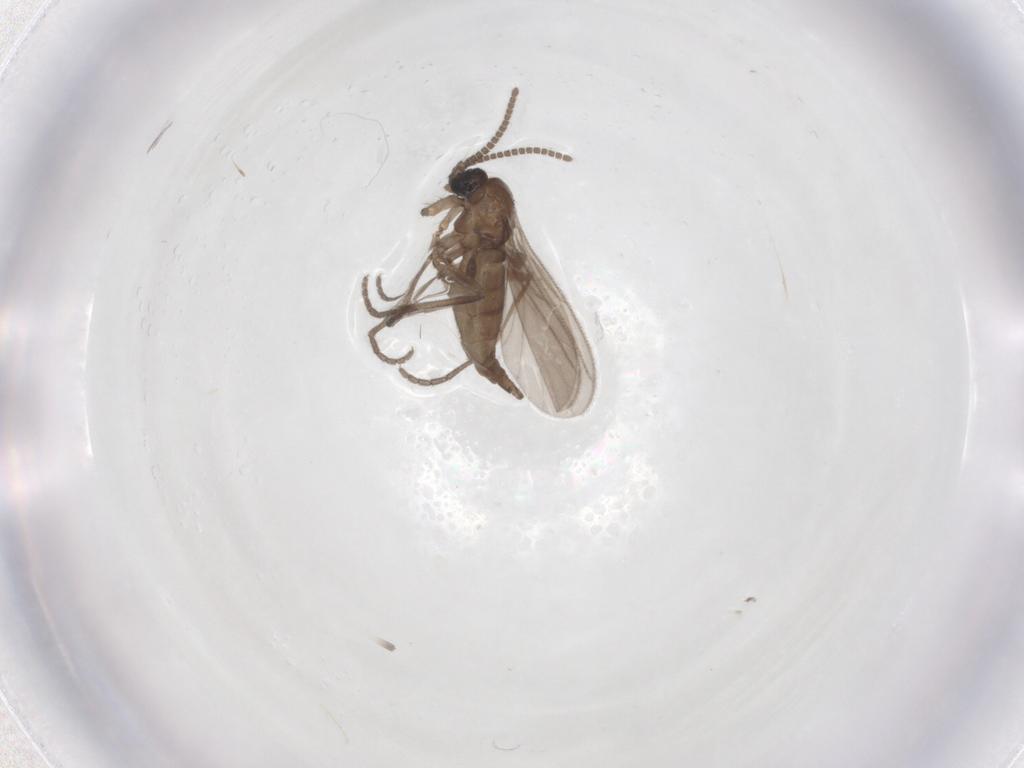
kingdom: Animalia
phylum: Arthropoda
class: Insecta
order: Diptera
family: Sciaridae
